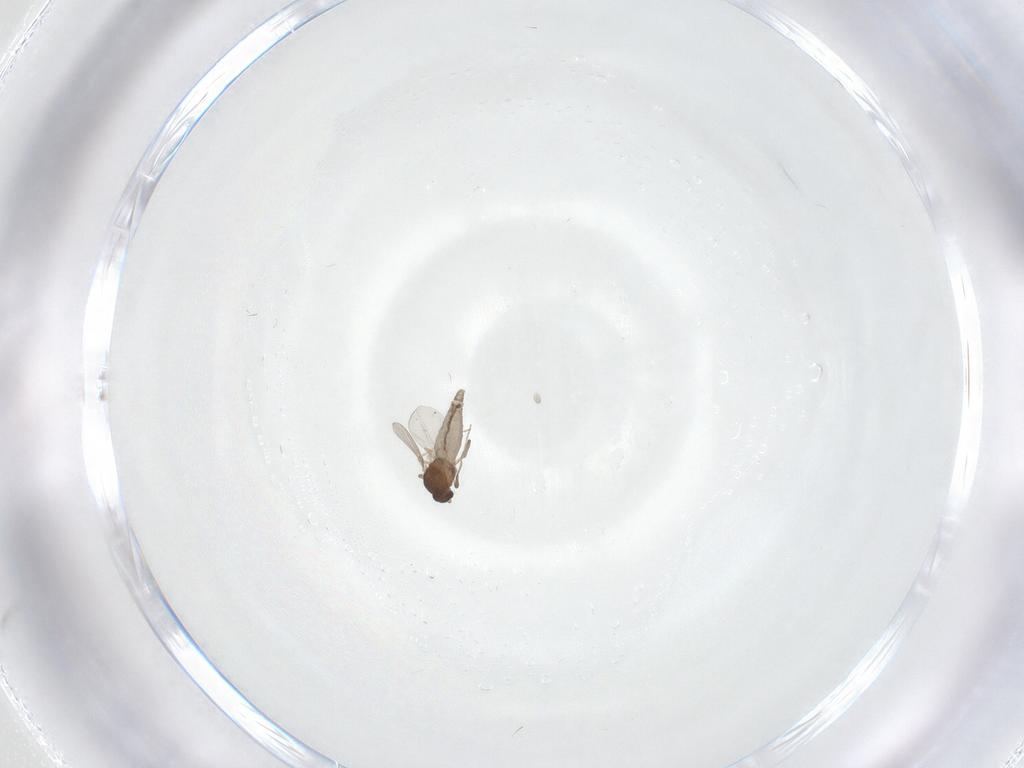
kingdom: Animalia
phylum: Arthropoda
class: Insecta
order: Diptera
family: Ceratopogonidae
